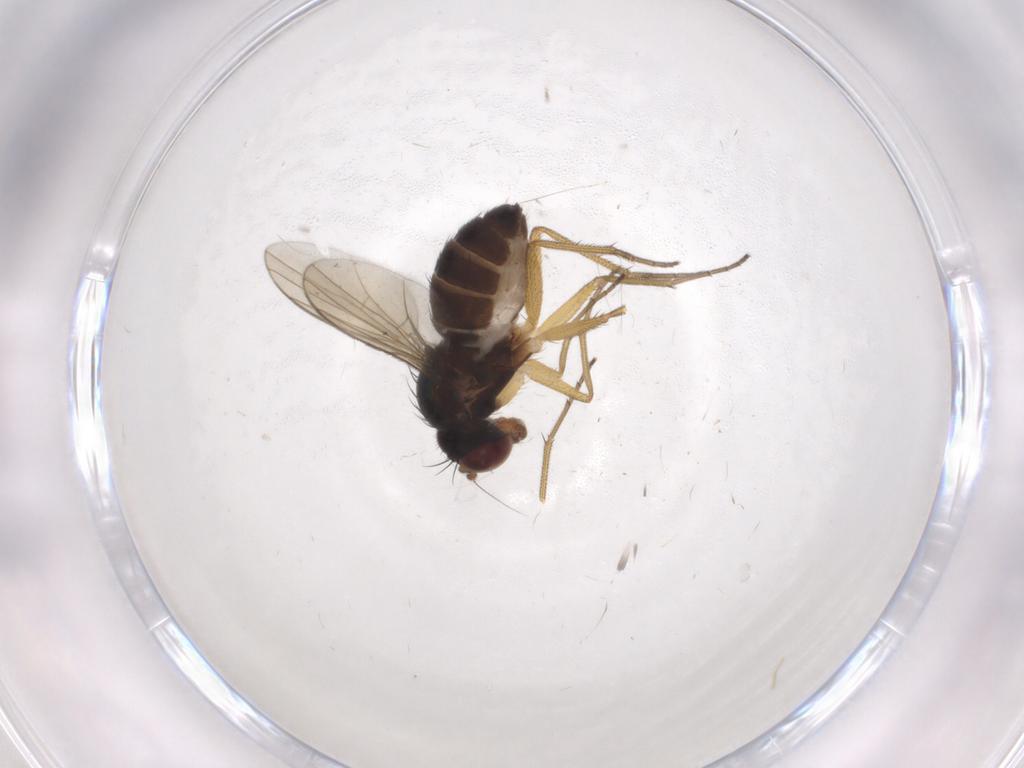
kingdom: Animalia
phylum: Arthropoda
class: Insecta
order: Diptera
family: Dolichopodidae
